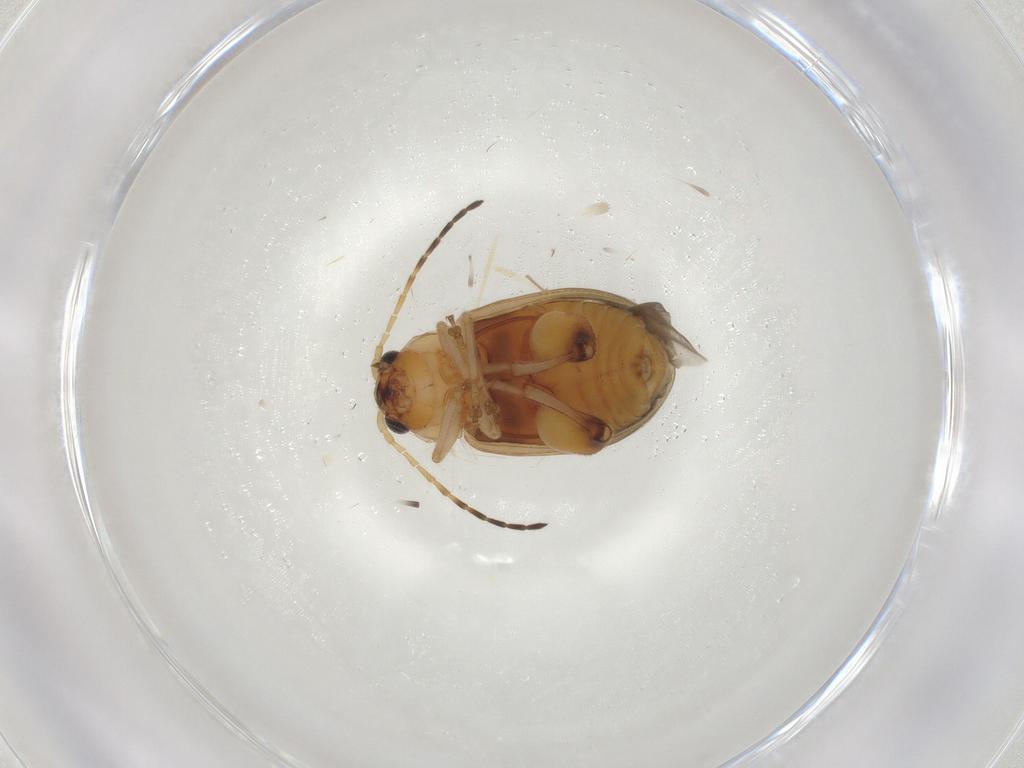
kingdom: Animalia
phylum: Arthropoda
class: Insecta
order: Coleoptera
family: Chrysomelidae
